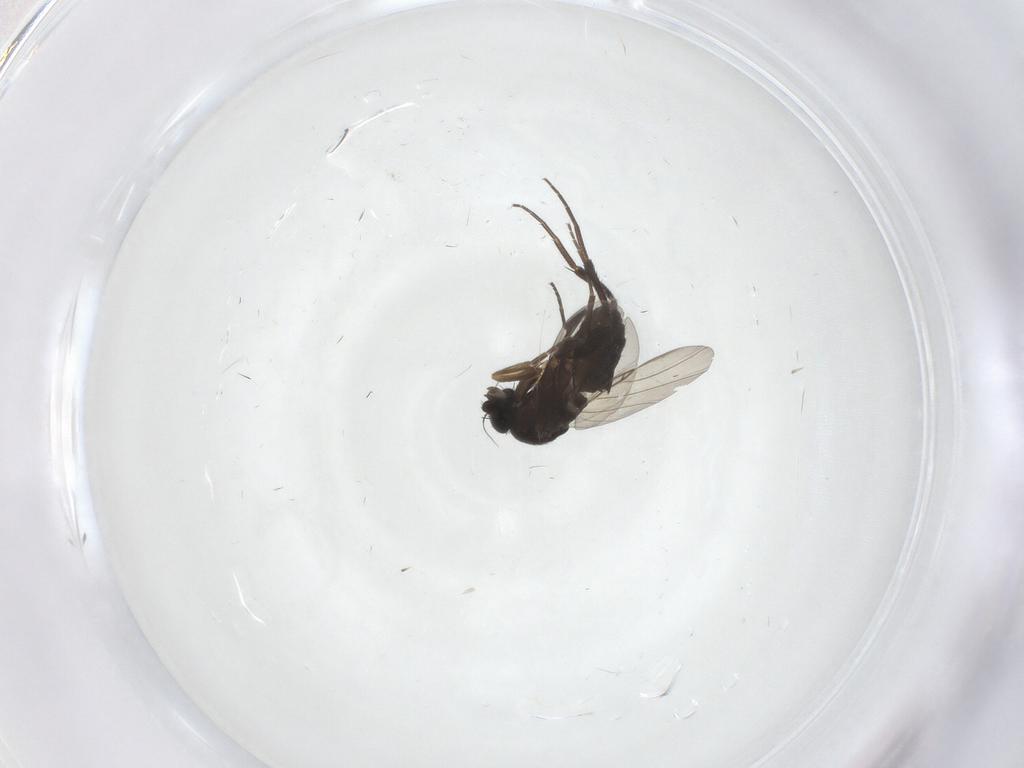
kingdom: Animalia
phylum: Arthropoda
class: Insecta
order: Diptera
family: Phoridae
